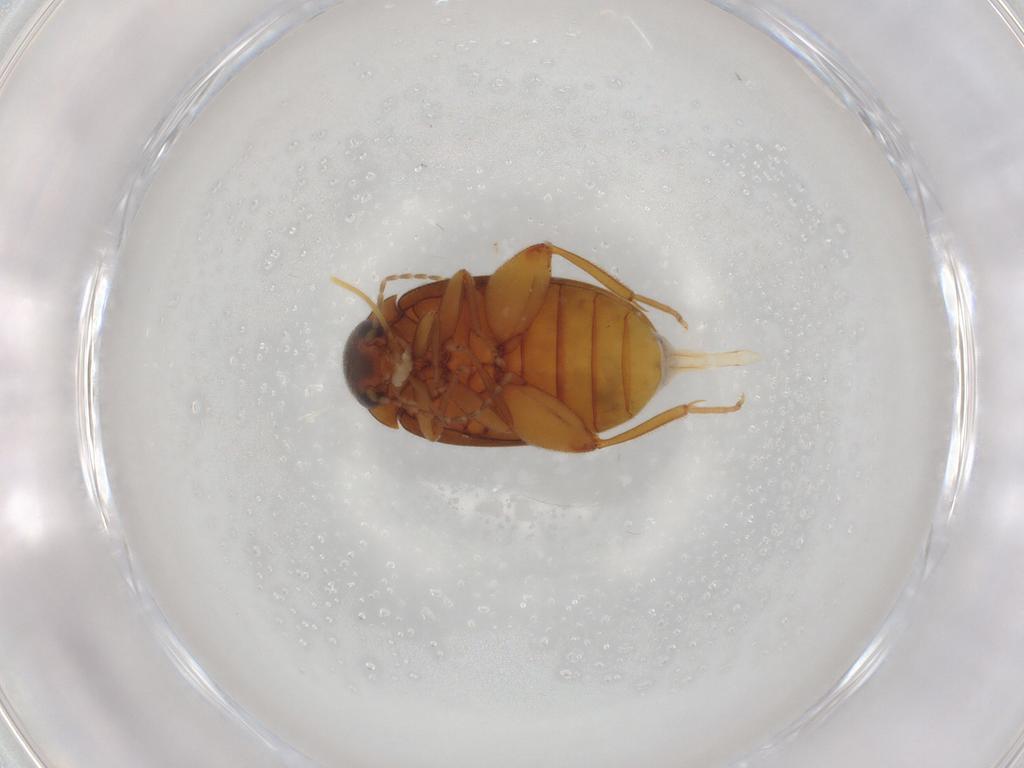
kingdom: Animalia
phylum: Arthropoda
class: Insecta
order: Coleoptera
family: Scirtidae
